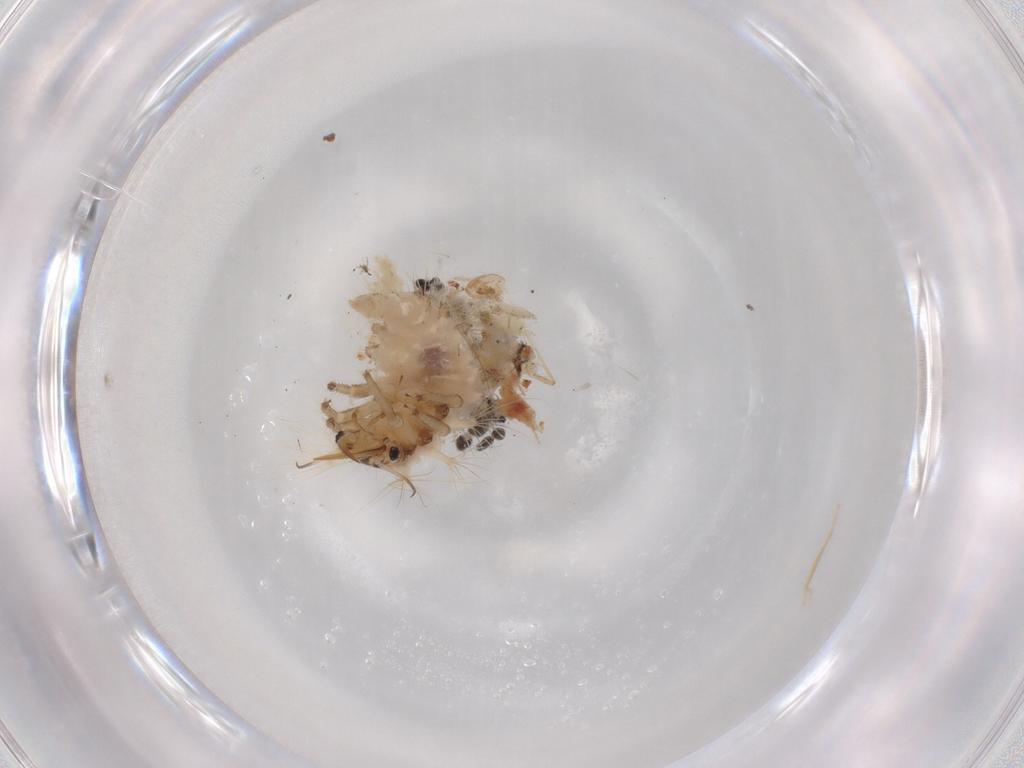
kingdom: Animalia
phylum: Arthropoda
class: Insecta
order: Neuroptera
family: Chrysopidae
